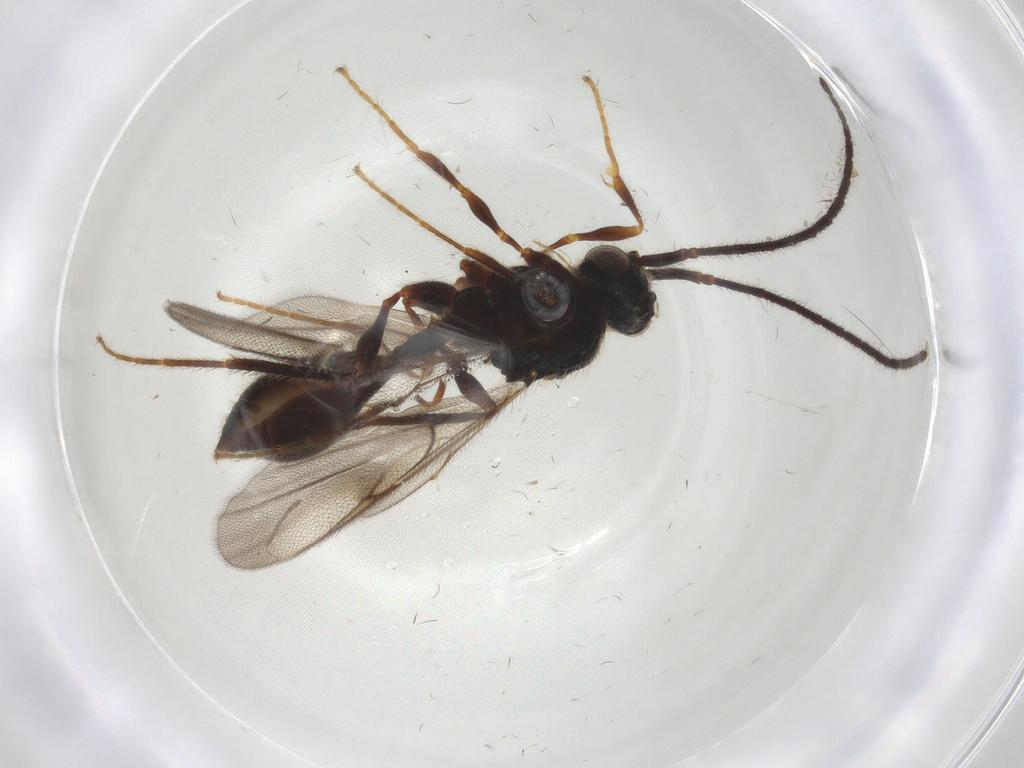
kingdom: Animalia
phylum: Arthropoda
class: Insecta
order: Hymenoptera
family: Diapriidae
